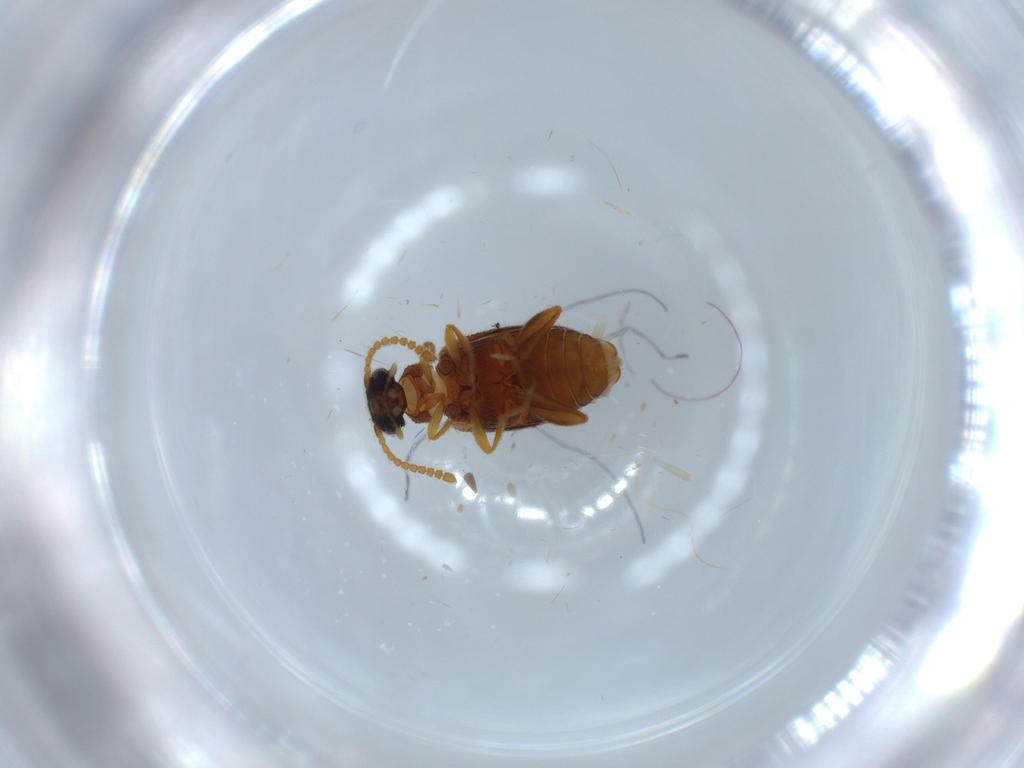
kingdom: Animalia
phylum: Arthropoda
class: Insecta
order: Coleoptera
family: Aderidae
